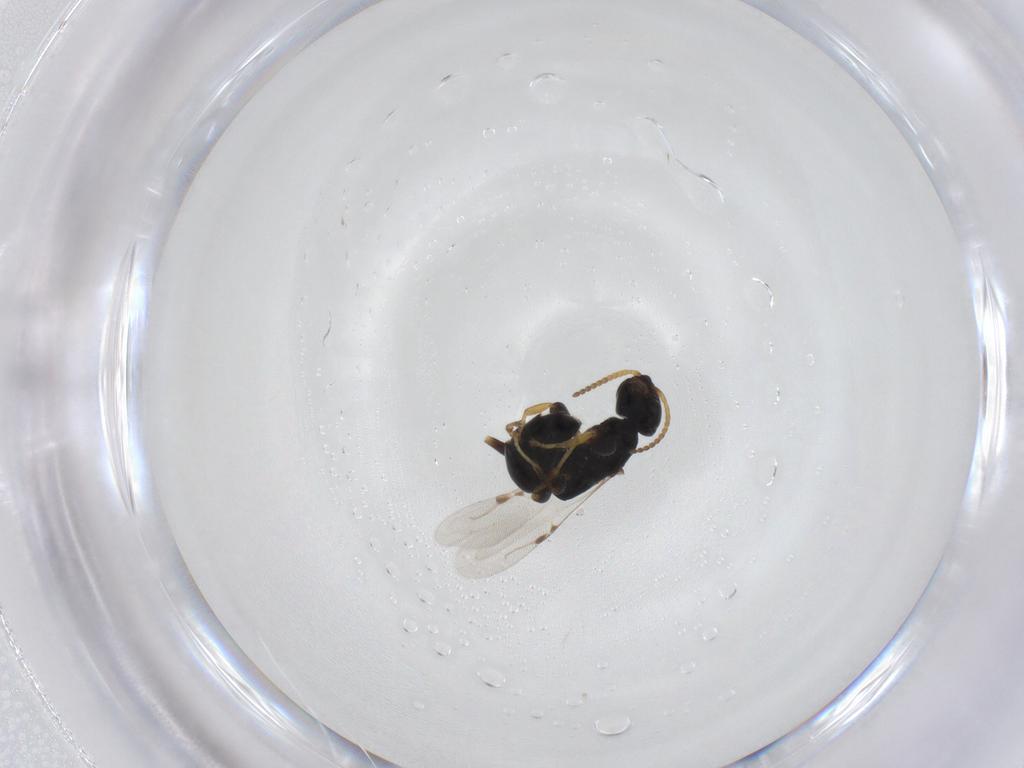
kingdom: Animalia
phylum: Arthropoda
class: Insecta
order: Hymenoptera
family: Bethylidae
